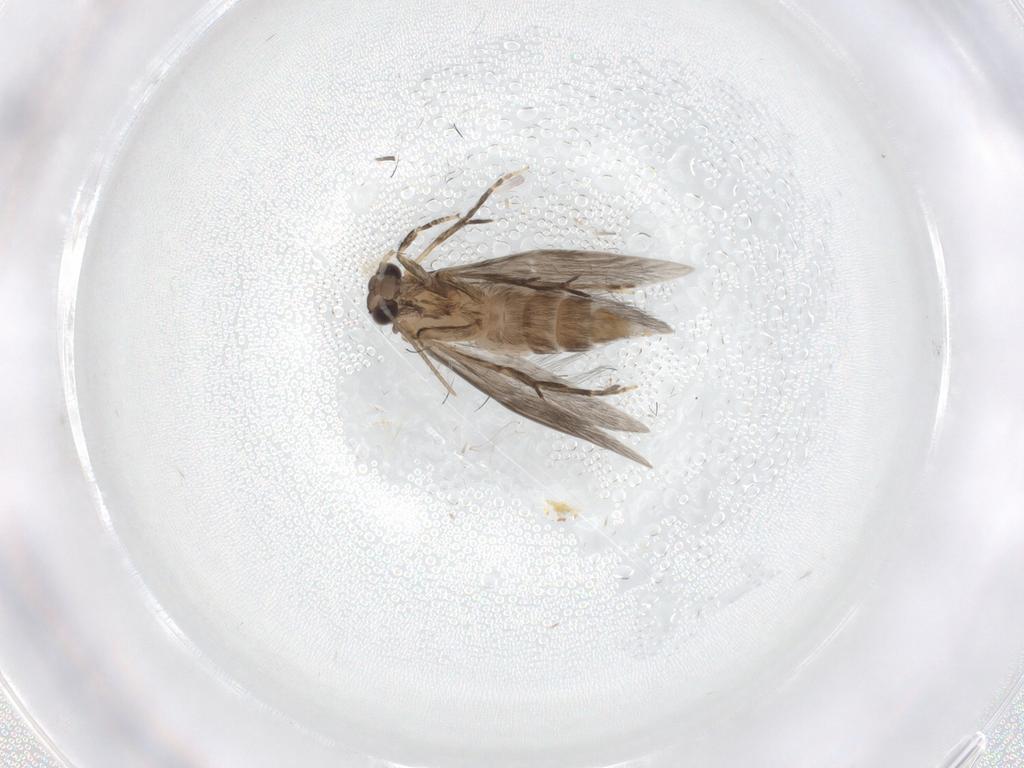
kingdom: Animalia
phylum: Arthropoda
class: Insecta
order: Trichoptera
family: Hydroptilidae
